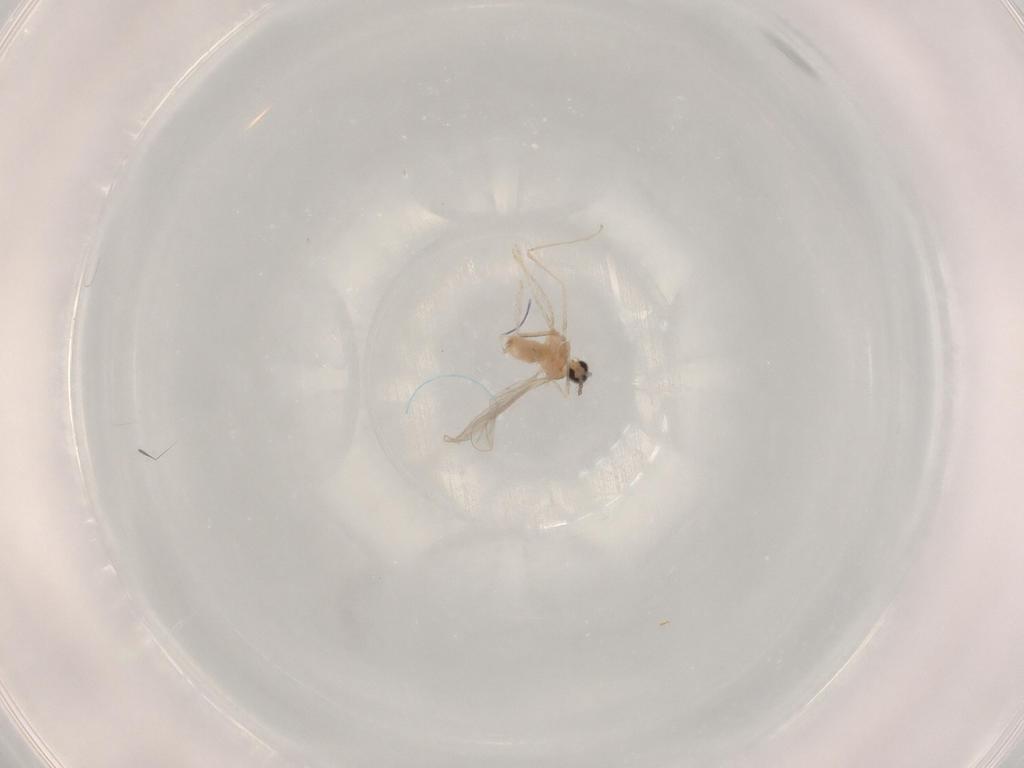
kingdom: Animalia
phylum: Arthropoda
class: Insecta
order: Diptera
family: Cecidomyiidae
